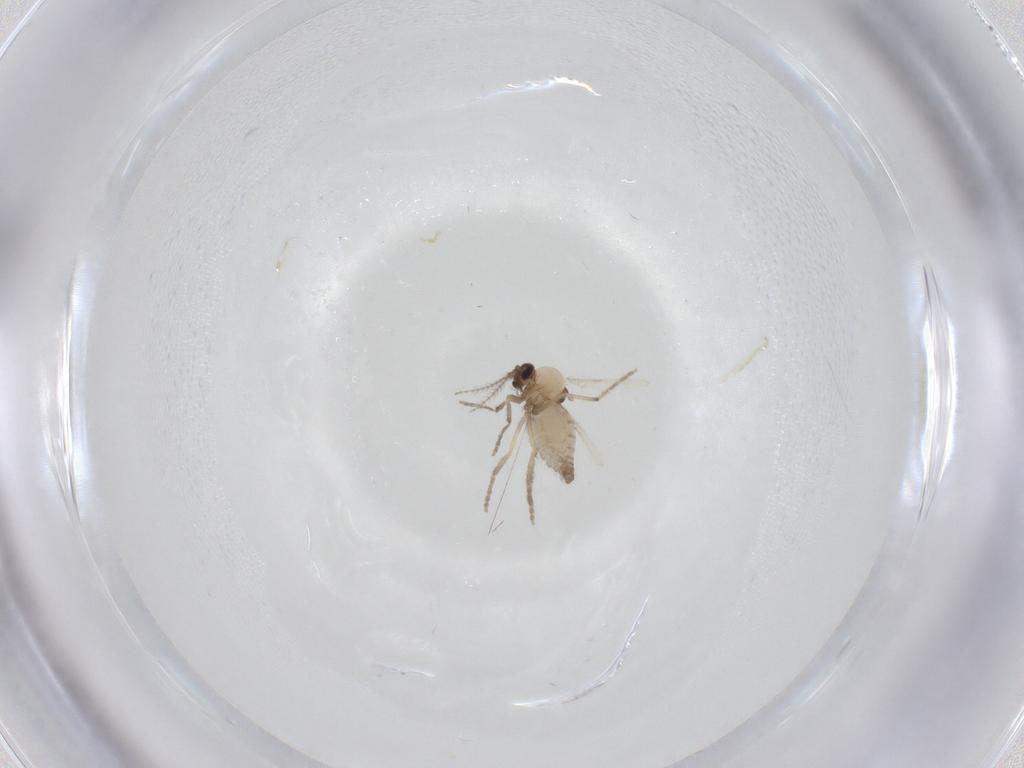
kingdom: Animalia
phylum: Arthropoda
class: Insecta
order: Diptera
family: Dolichopodidae
